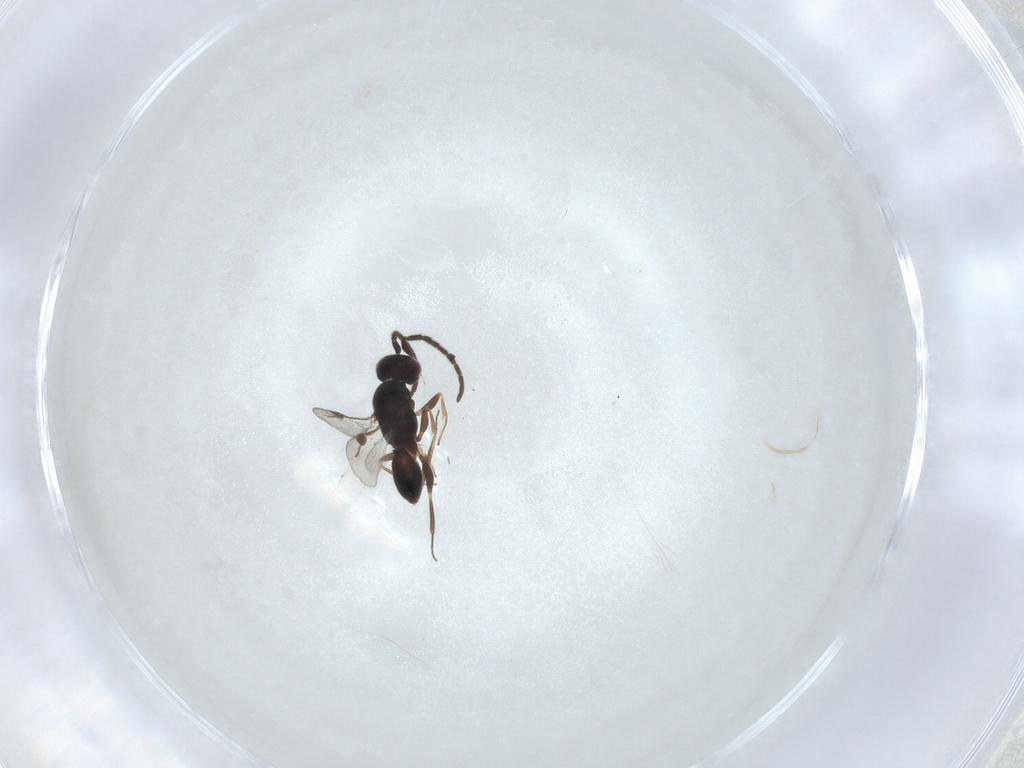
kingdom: Animalia
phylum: Arthropoda
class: Insecta
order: Hymenoptera
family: Megaspilidae
